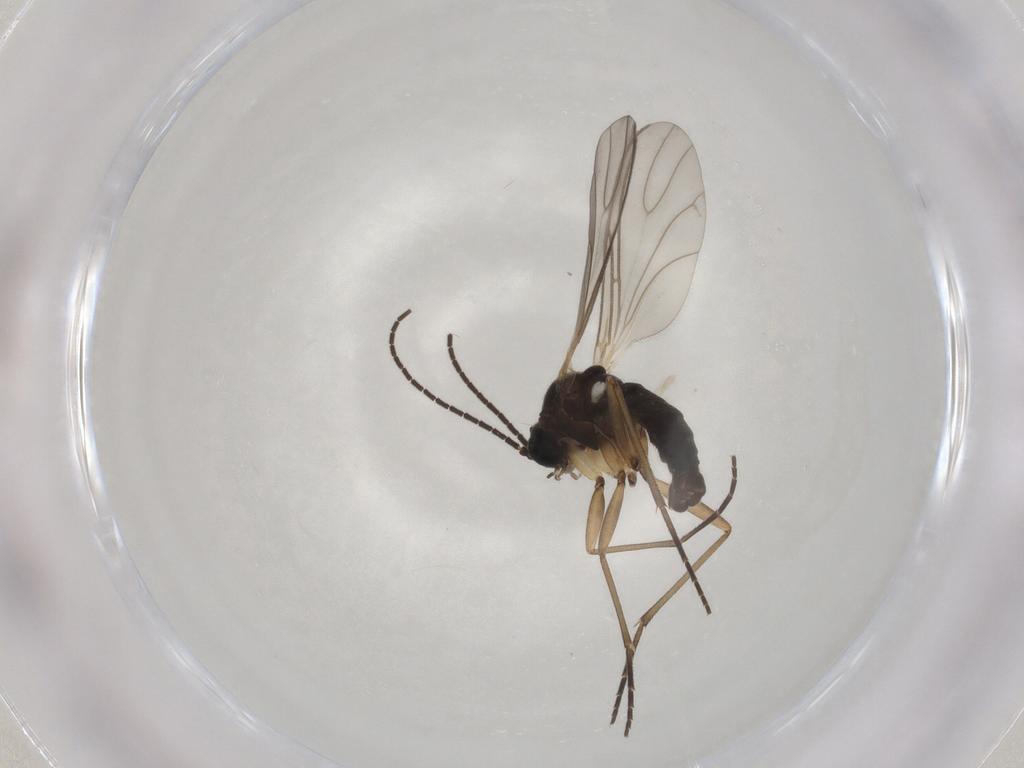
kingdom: Animalia
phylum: Arthropoda
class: Insecta
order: Diptera
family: Sciaridae
